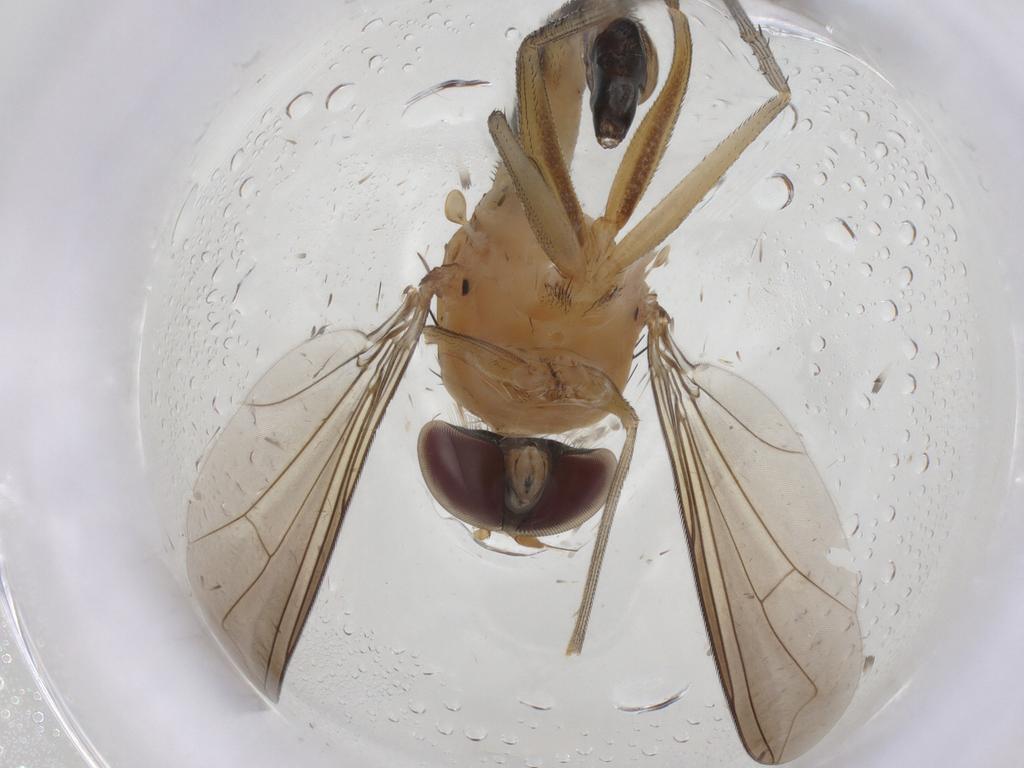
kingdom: Animalia
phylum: Arthropoda
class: Insecta
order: Diptera
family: Dolichopodidae
